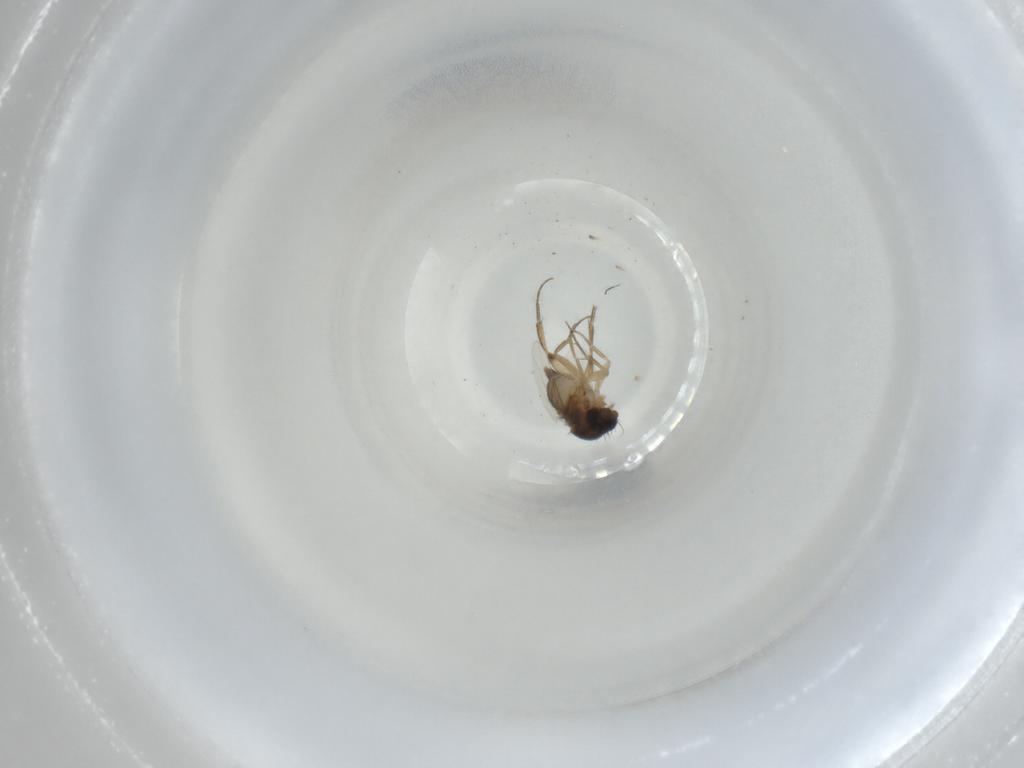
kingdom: Animalia
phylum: Arthropoda
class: Insecta
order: Diptera
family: Phoridae
